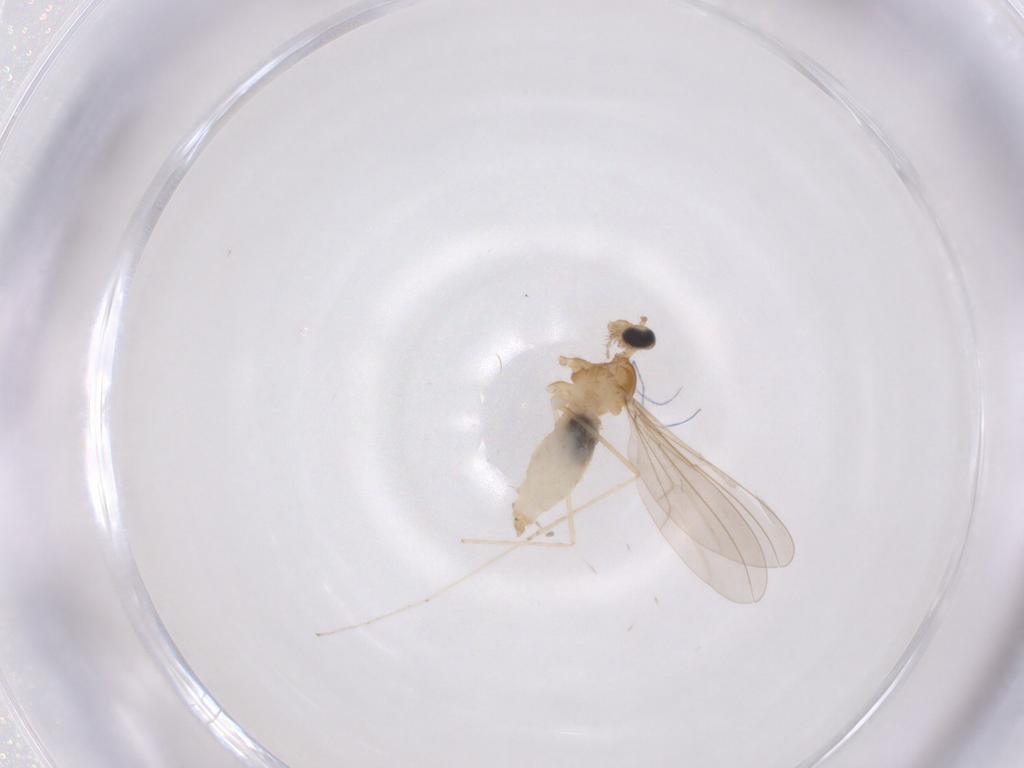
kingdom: Animalia
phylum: Arthropoda
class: Insecta
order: Diptera
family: Cecidomyiidae
